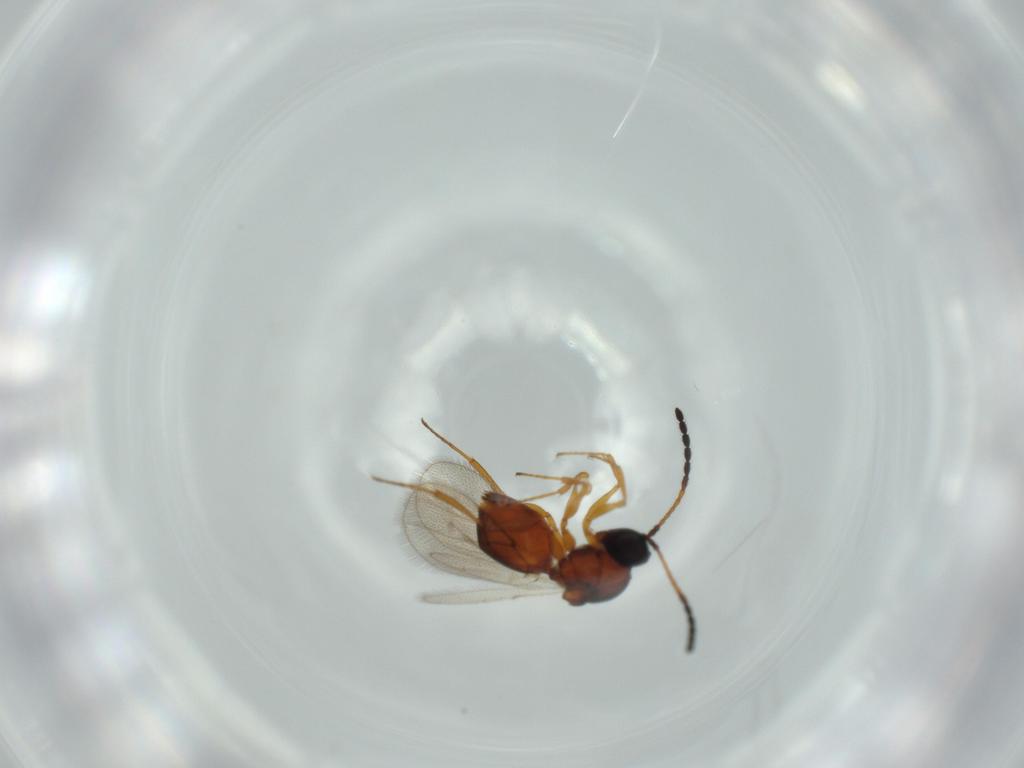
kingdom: Animalia
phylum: Arthropoda
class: Insecta
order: Hymenoptera
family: Figitidae
